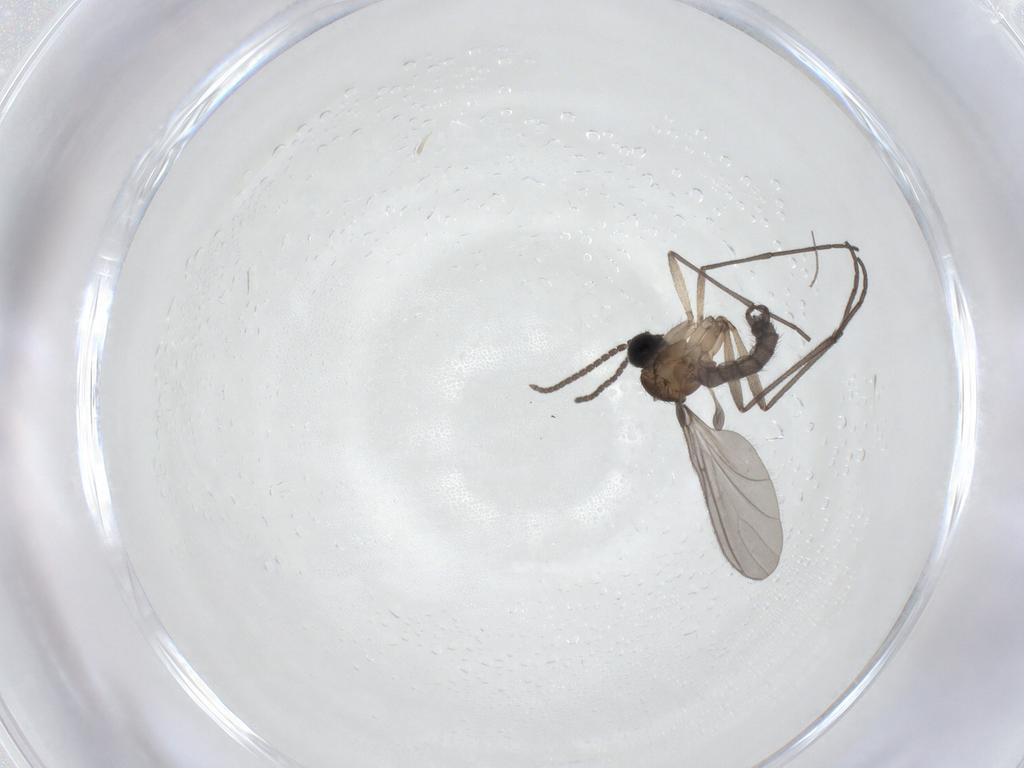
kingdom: Animalia
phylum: Arthropoda
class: Insecta
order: Diptera
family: Sciaridae
